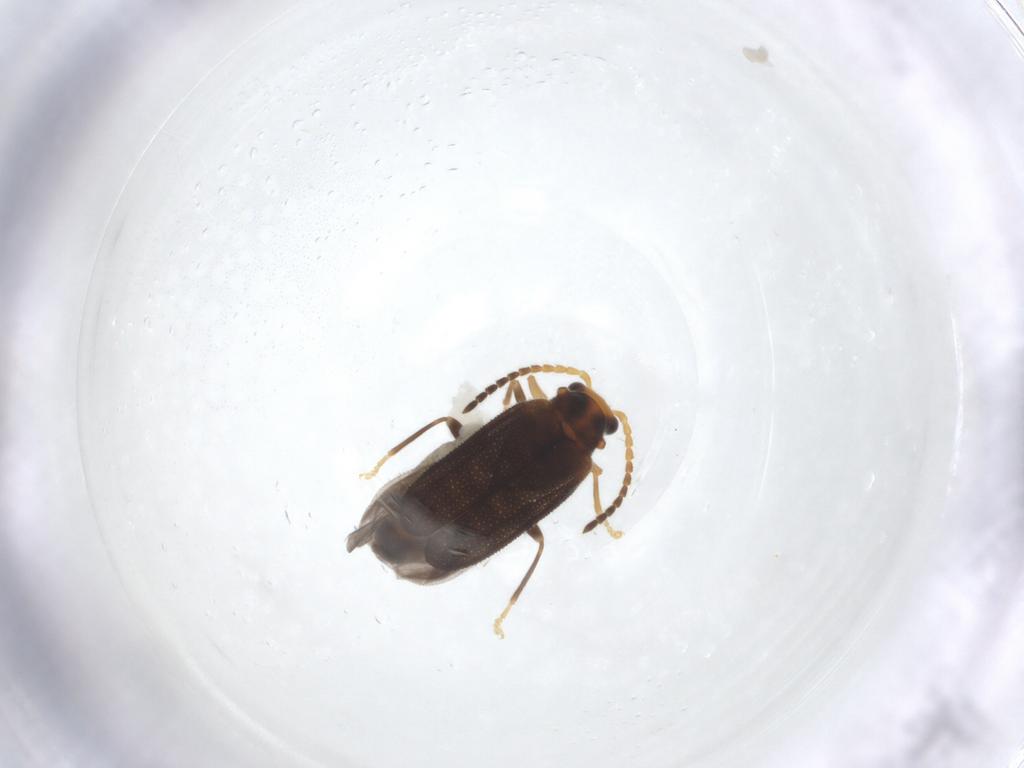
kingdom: Animalia
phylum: Arthropoda
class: Insecta
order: Coleoptera
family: Cantharidae
